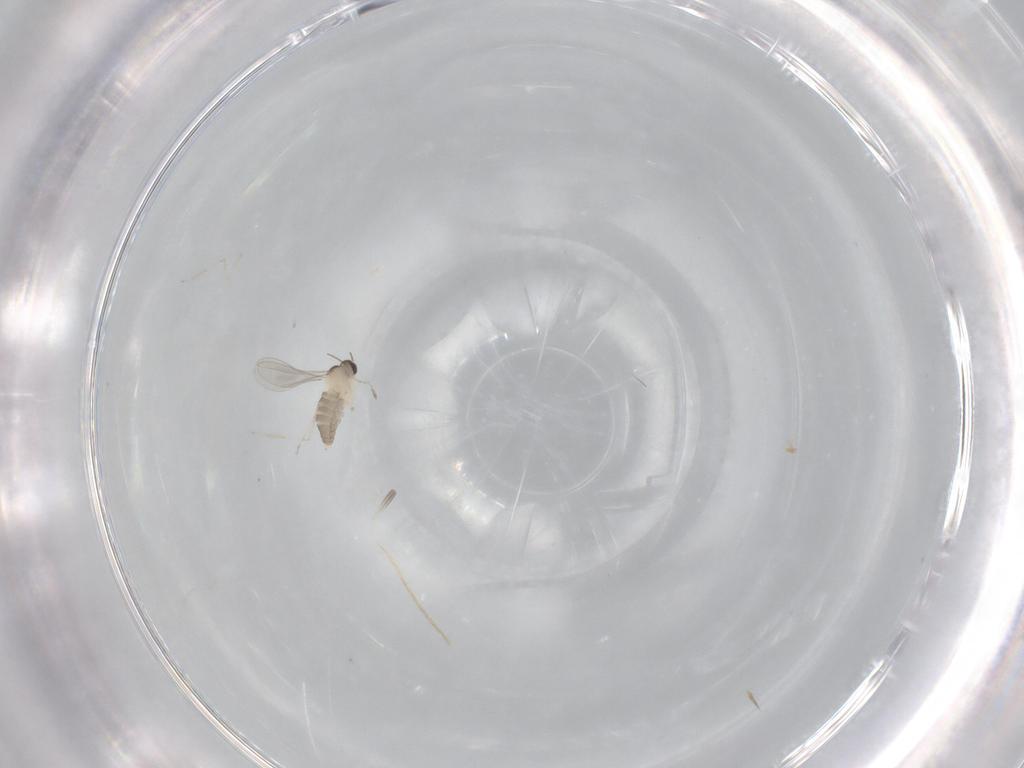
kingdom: Animalia
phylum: Arthropoda
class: Insecta
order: Diptera
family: Cecidomyiidae
